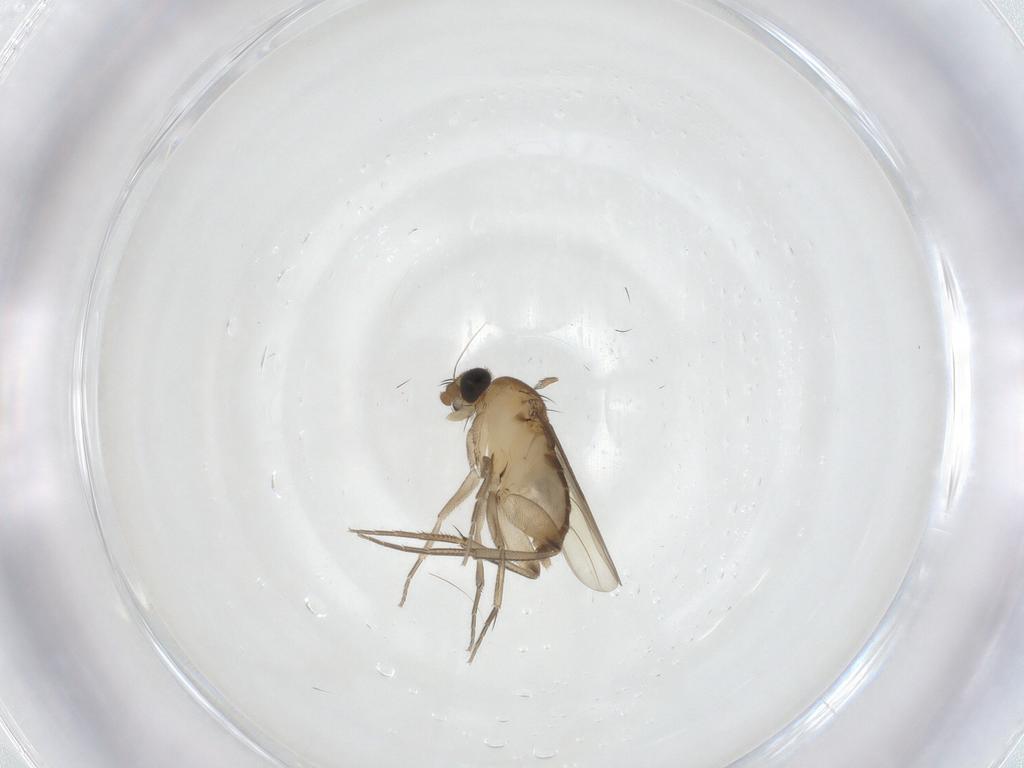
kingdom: Animalia
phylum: Arthropoda
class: Insecta
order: Diptera
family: Phoridae
